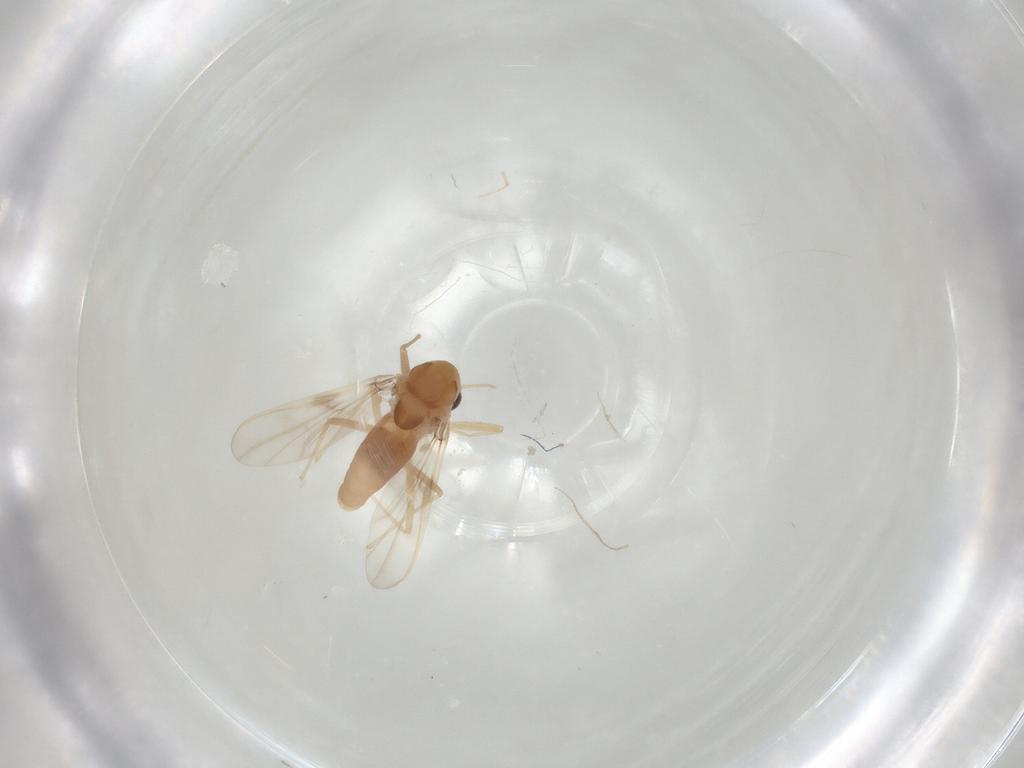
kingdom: Animalia
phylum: Arthropoda
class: Insecta
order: Diptera
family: Chironomidae
